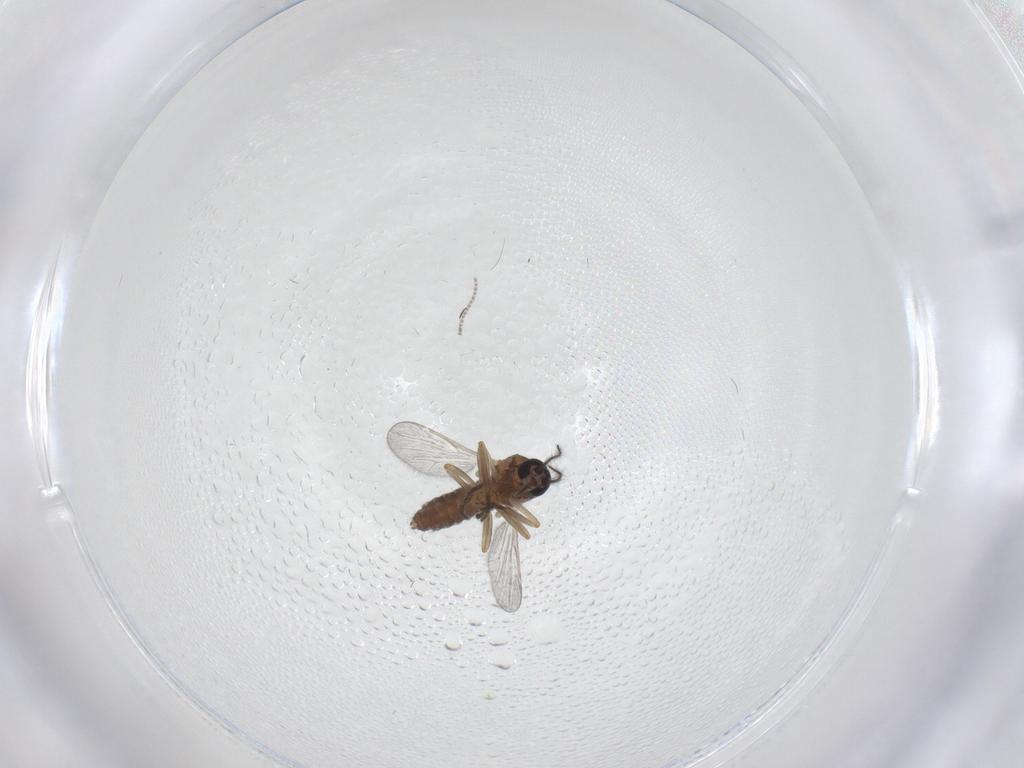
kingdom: Animalia
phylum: Arthropoda
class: Insecta
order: Diptera
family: Cecidomyiidae
